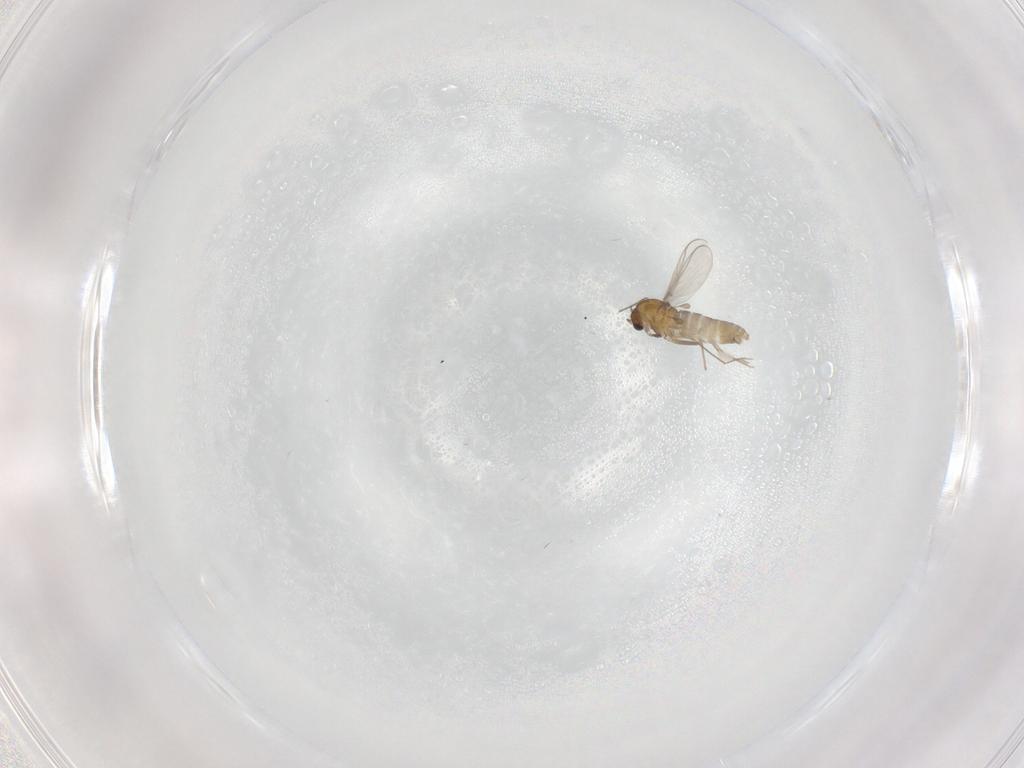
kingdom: Animalia
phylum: Arthropoda
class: Insecta
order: Diptera
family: Chironomidae
